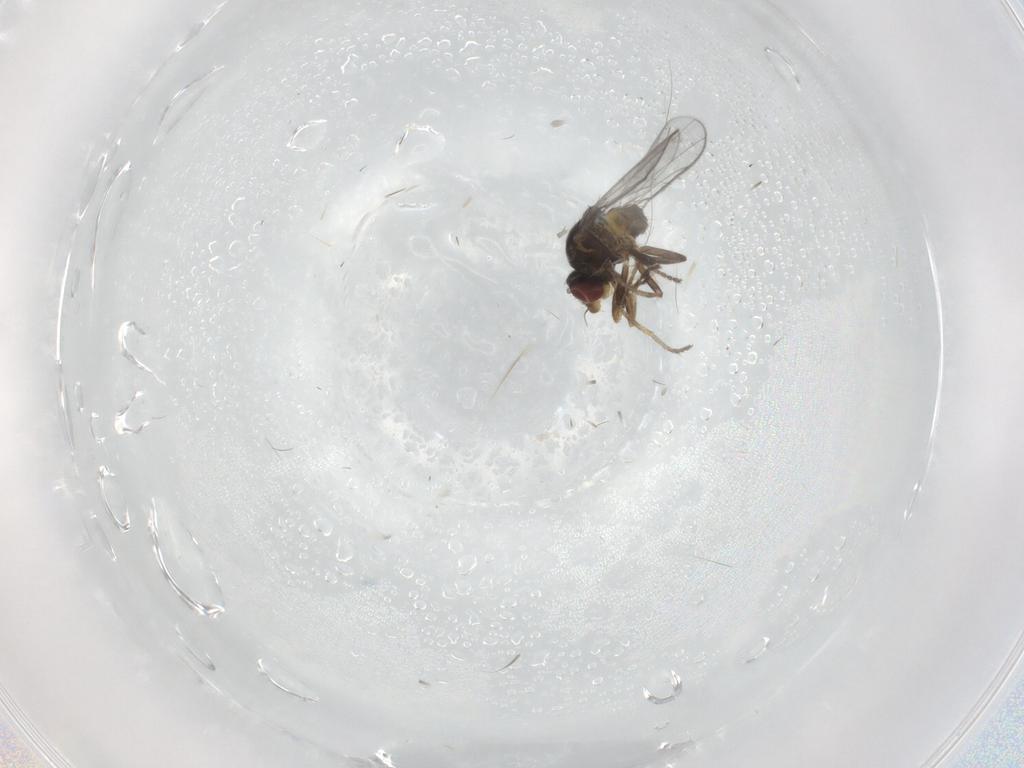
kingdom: Animalia
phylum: Arthropoda
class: Insecta
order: Diptera
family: Chloropidae
